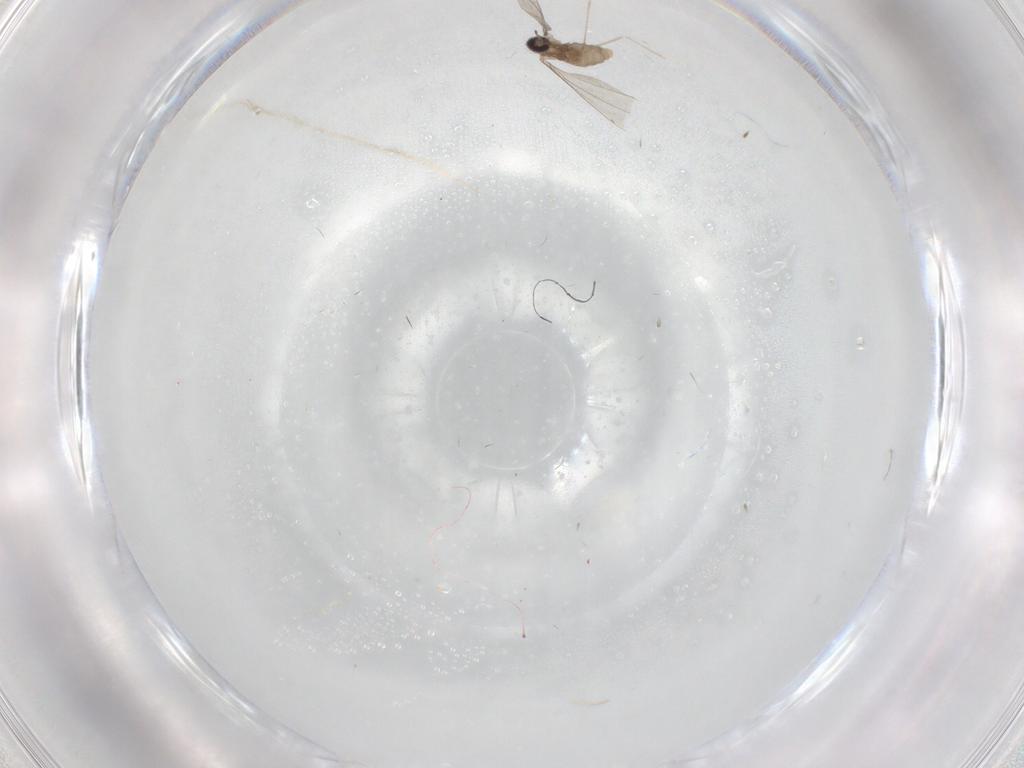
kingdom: Animalia
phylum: Arthropoda
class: Insecta
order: Diptera
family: Cecidomyiidae
